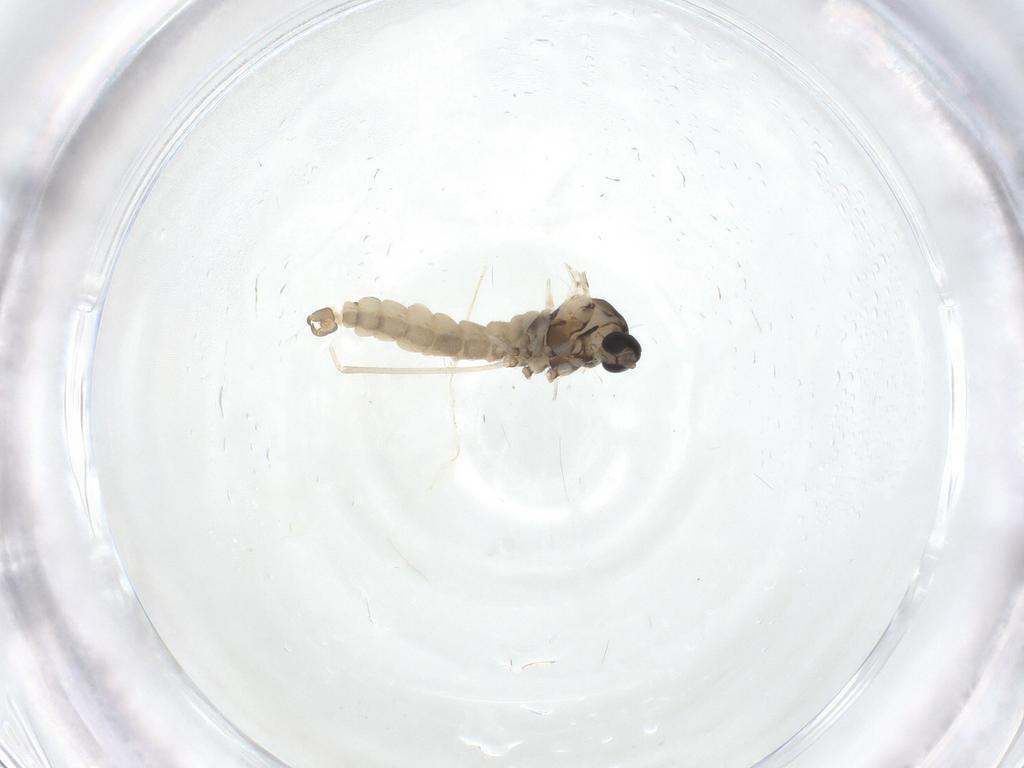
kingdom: Animalia
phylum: Arthropoda
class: Insecta
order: Diptera
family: Cecidomyiidae
